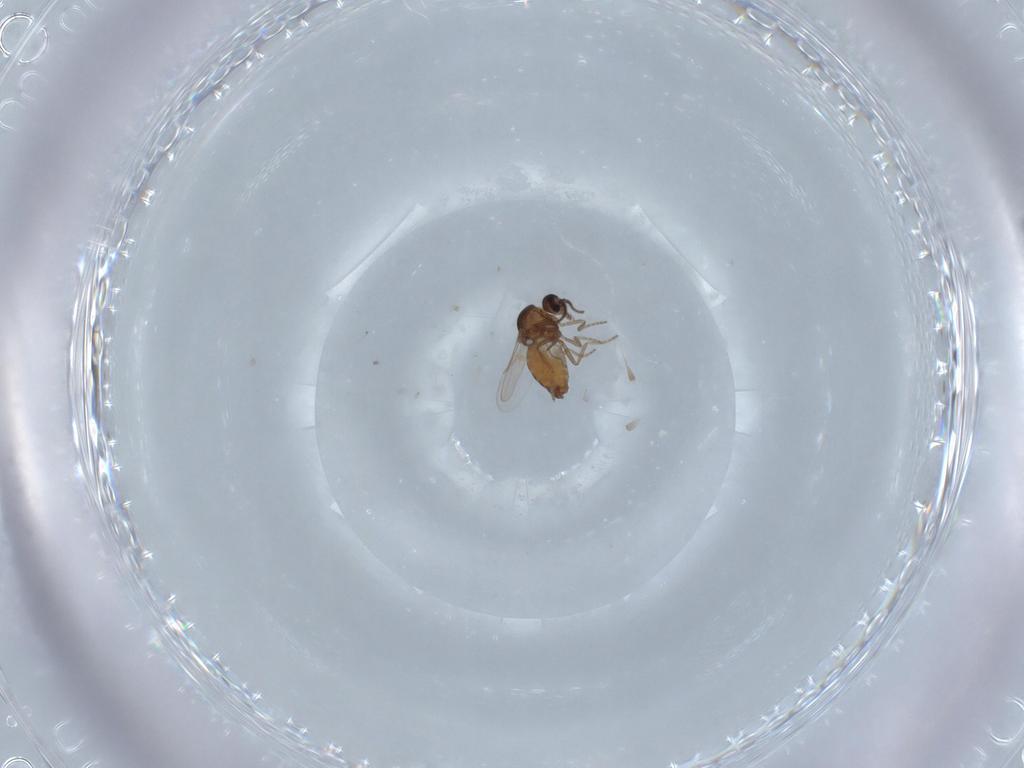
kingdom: Animalia
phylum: Arthropoda
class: Insecta
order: Diptera
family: Ceratopogonidae
